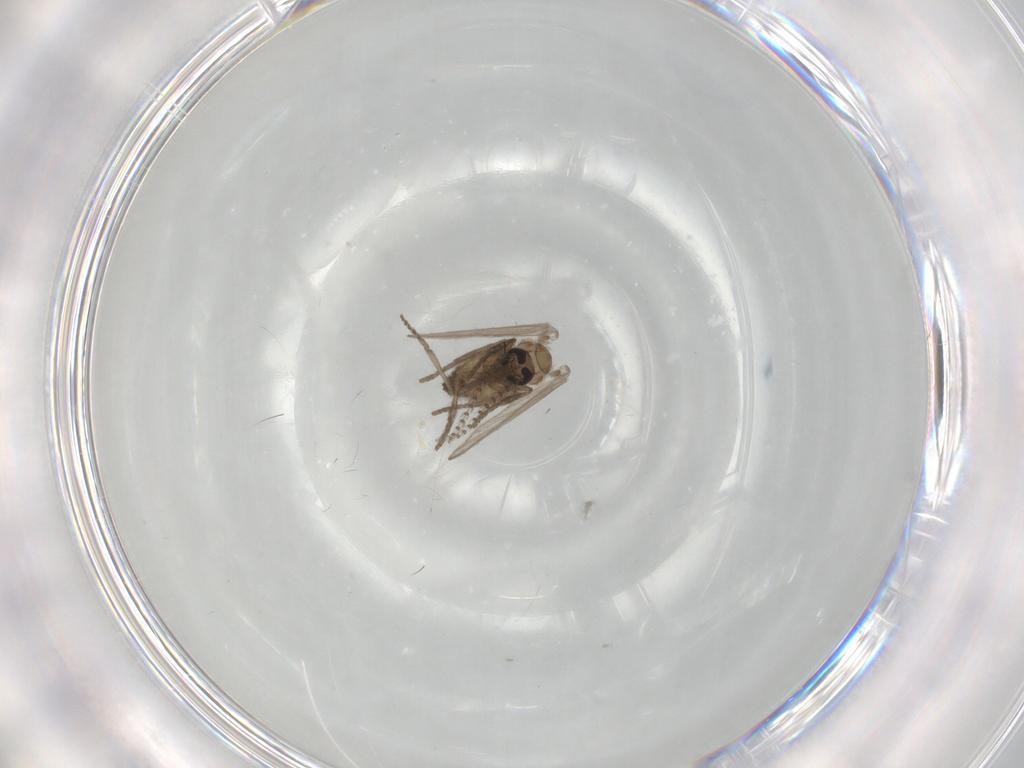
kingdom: Animalia
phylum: Arthropoda
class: Insecta
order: Diptera
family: Psychodidae
